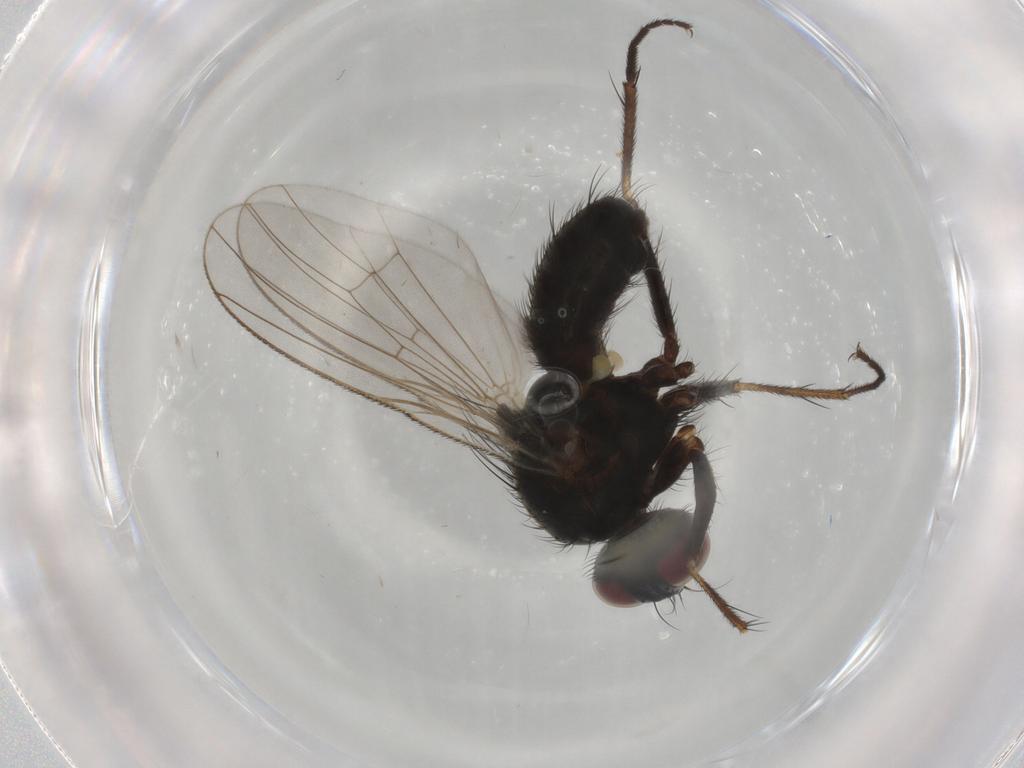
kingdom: Animalia
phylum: Arthropoda
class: Insecta
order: Diptera
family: Muscidae
